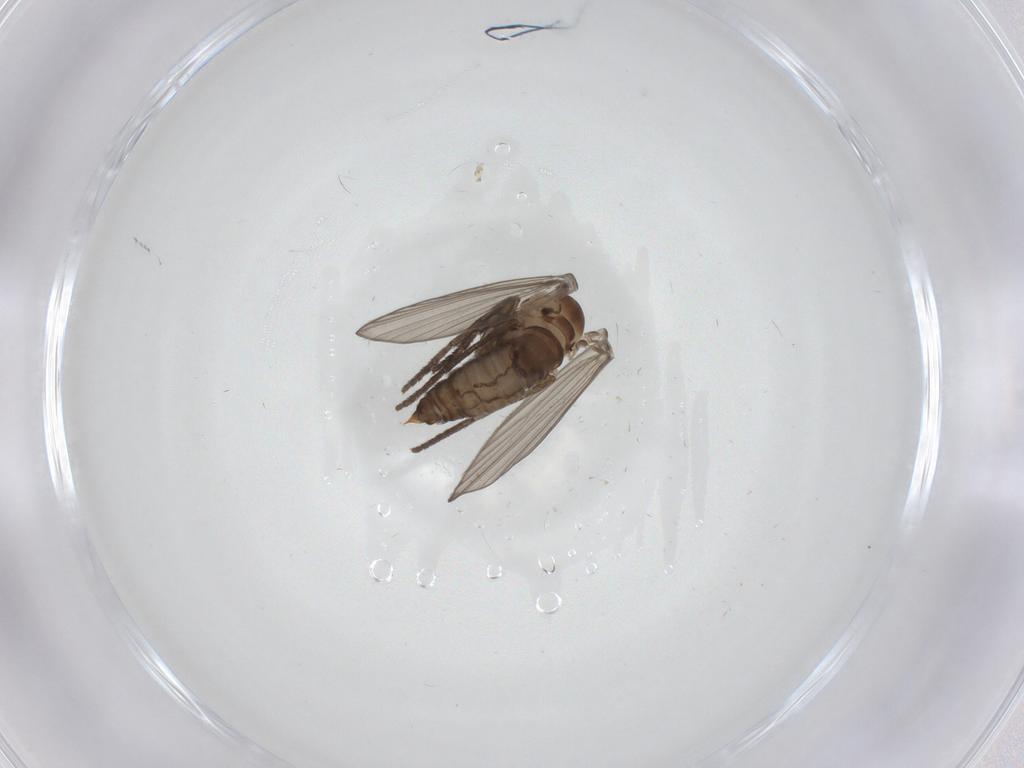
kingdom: Animalia
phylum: Arthropoda
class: Insecta
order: Diptera
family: Psychodidae
